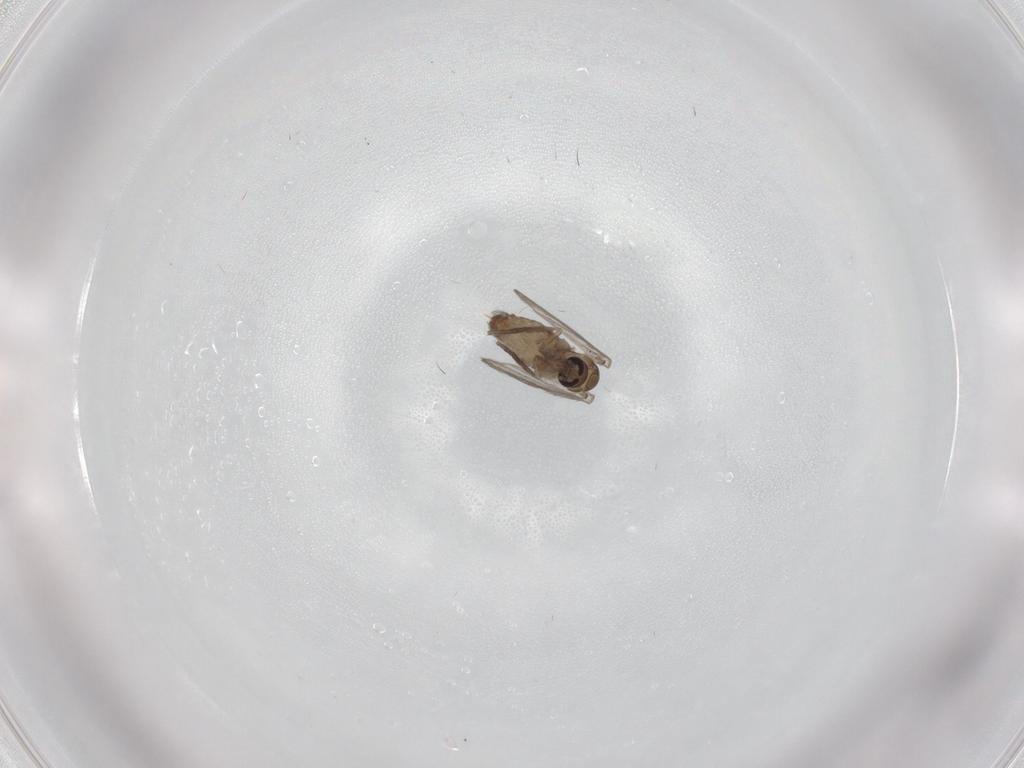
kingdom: Animalia
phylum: Arthropoda
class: Insecta
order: Diptera
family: Psychodidae
